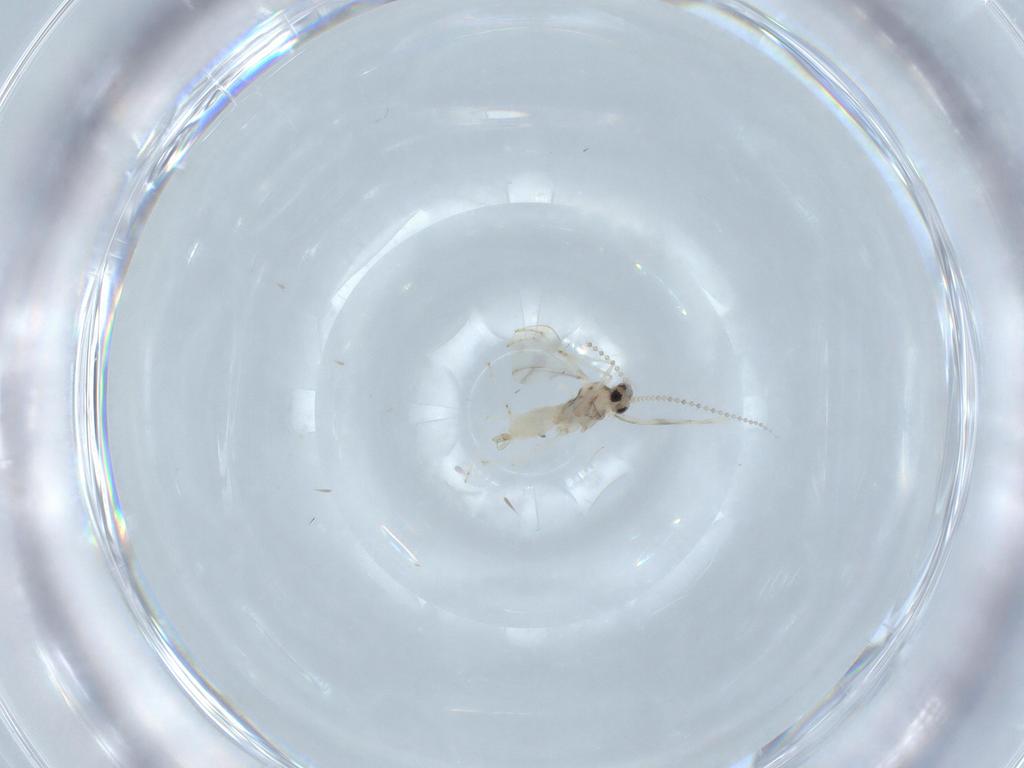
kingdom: Animalia
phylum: Arthropoda
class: Insecta
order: Diptera
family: Cecidomyiidae
